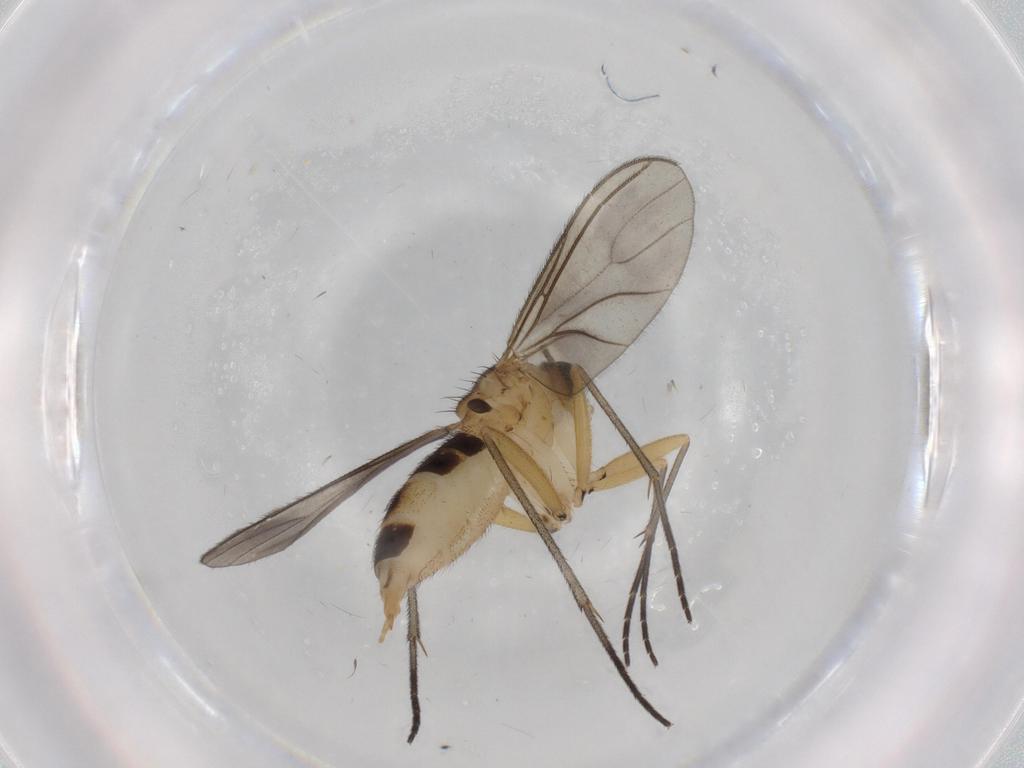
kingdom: Animalia
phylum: Arthropoda
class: Insecta
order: Diptera
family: Sciaridae
